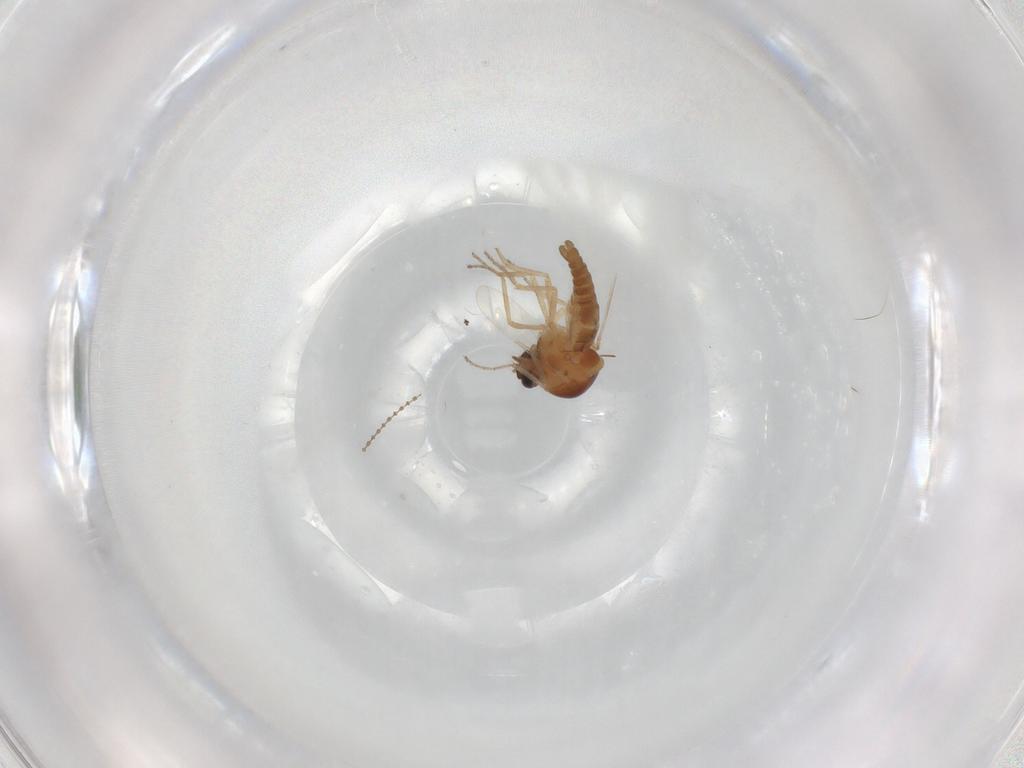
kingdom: Animalia
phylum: Arthropoda
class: Insecta
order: Diptera
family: Ceratopogonidae
